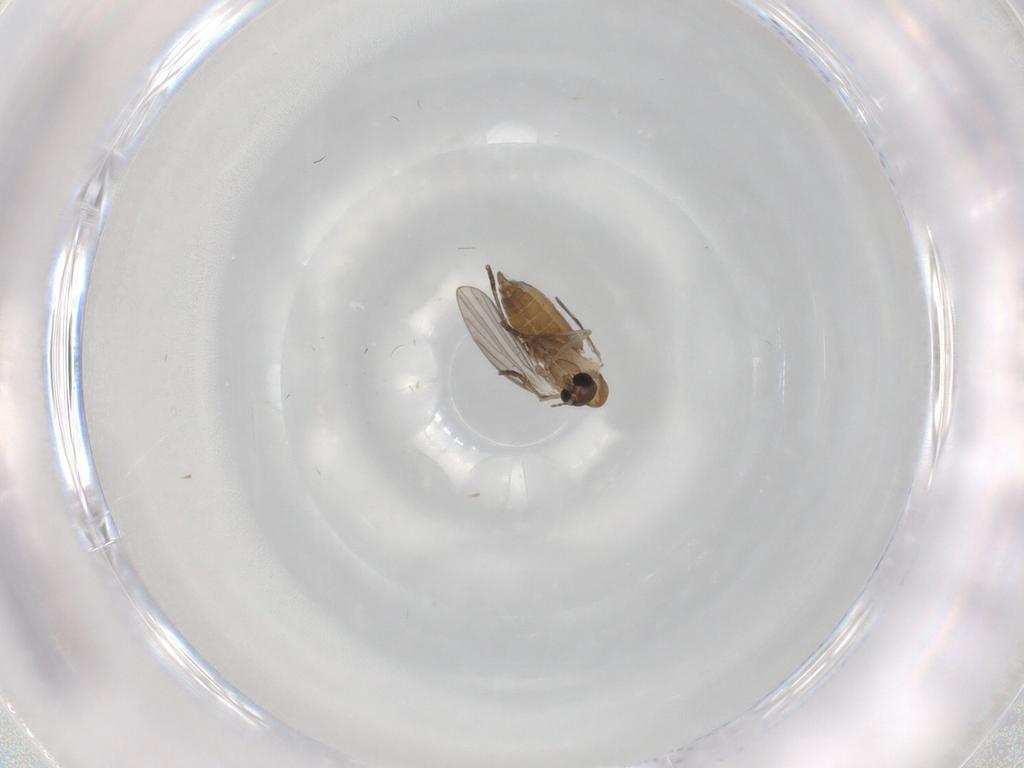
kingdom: Animalia
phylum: Arthropoda
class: Insecta
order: Diptera
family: Psychodidae
